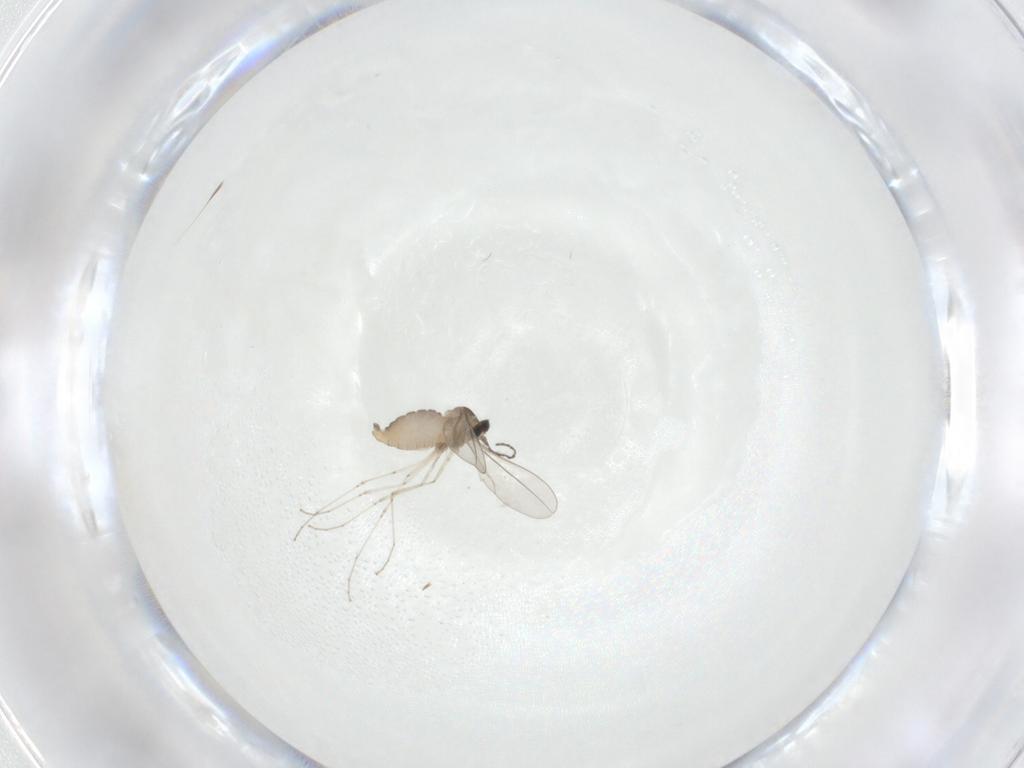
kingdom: Animalia
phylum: Arthropoda
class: Insecta
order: Diptera
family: Cecidomyiidae
